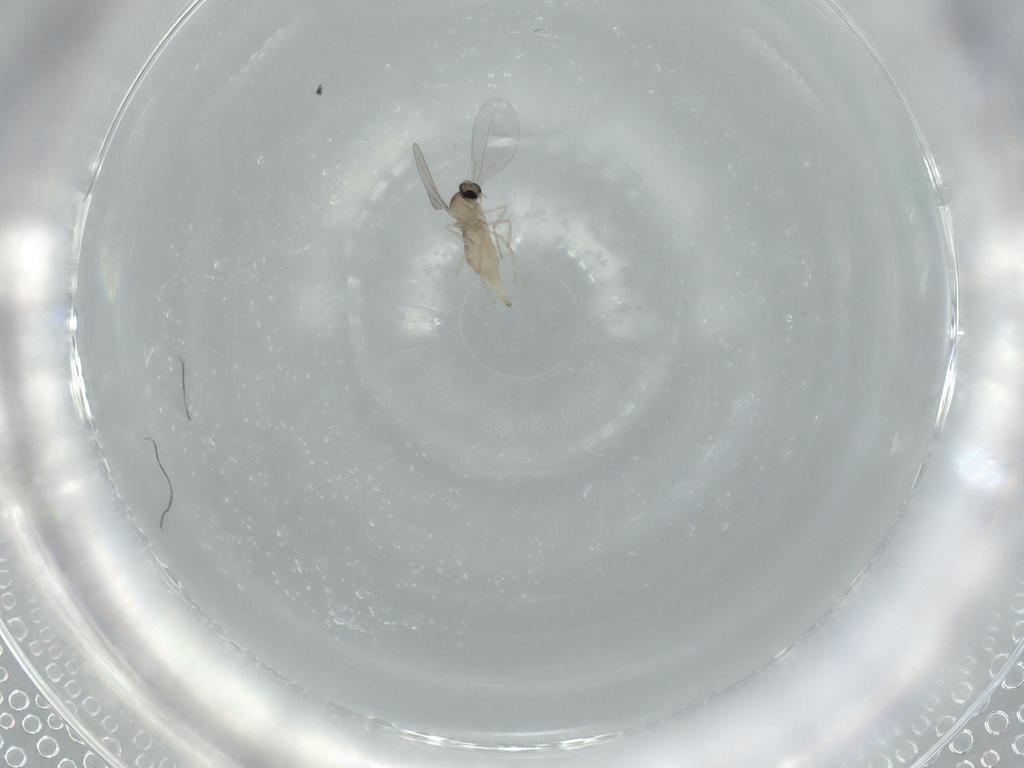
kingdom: Animalia
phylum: Arthropoda
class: Insecta
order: Diptera
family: Cecidomyiidae
